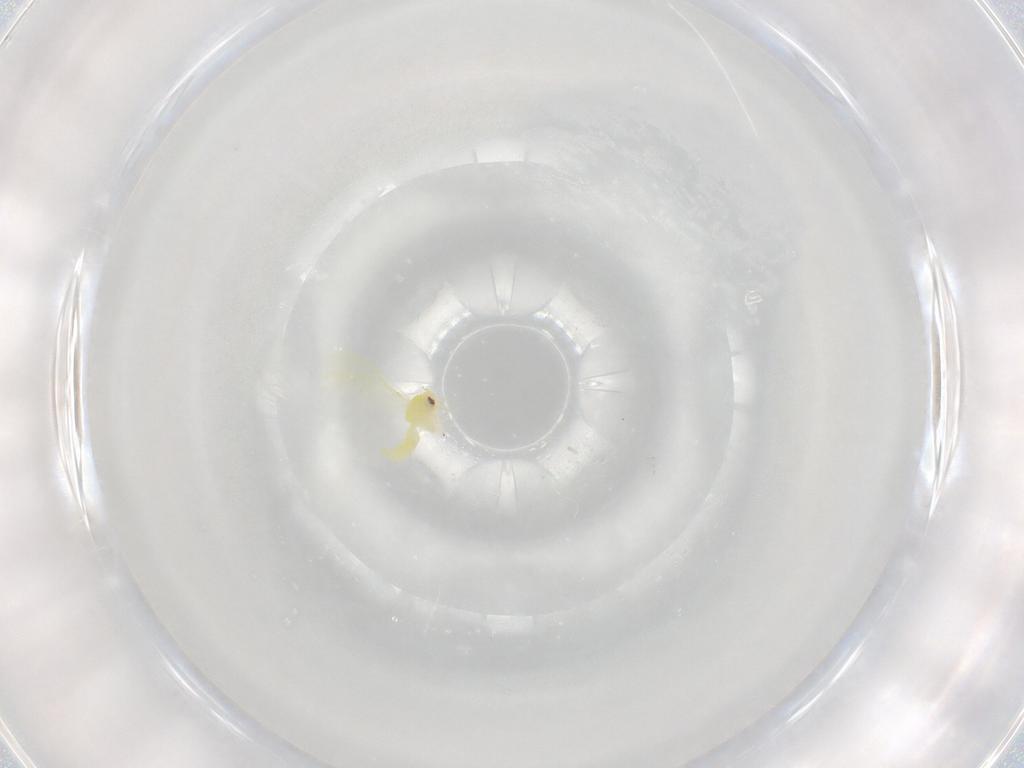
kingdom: Animalia
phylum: Arthropoda
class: Insecta
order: Hemiptera
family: Aleyrodidae
